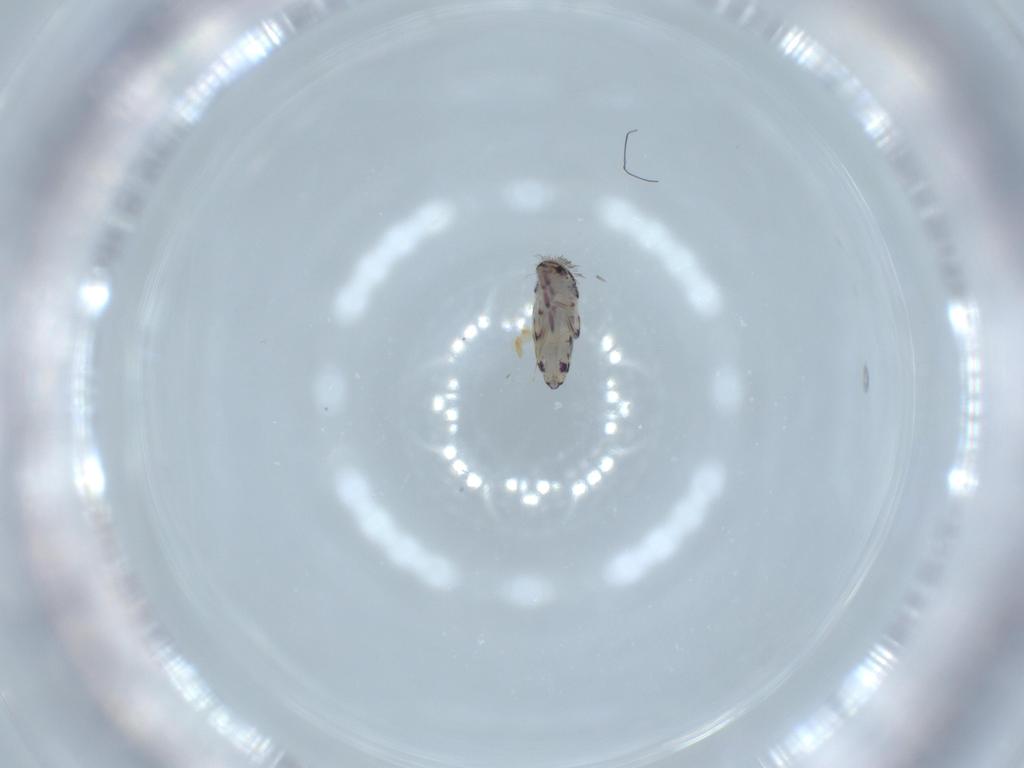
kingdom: Animalia
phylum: Arthropoda
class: Collembola
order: Entomobryomorpha
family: Entomobryidae
